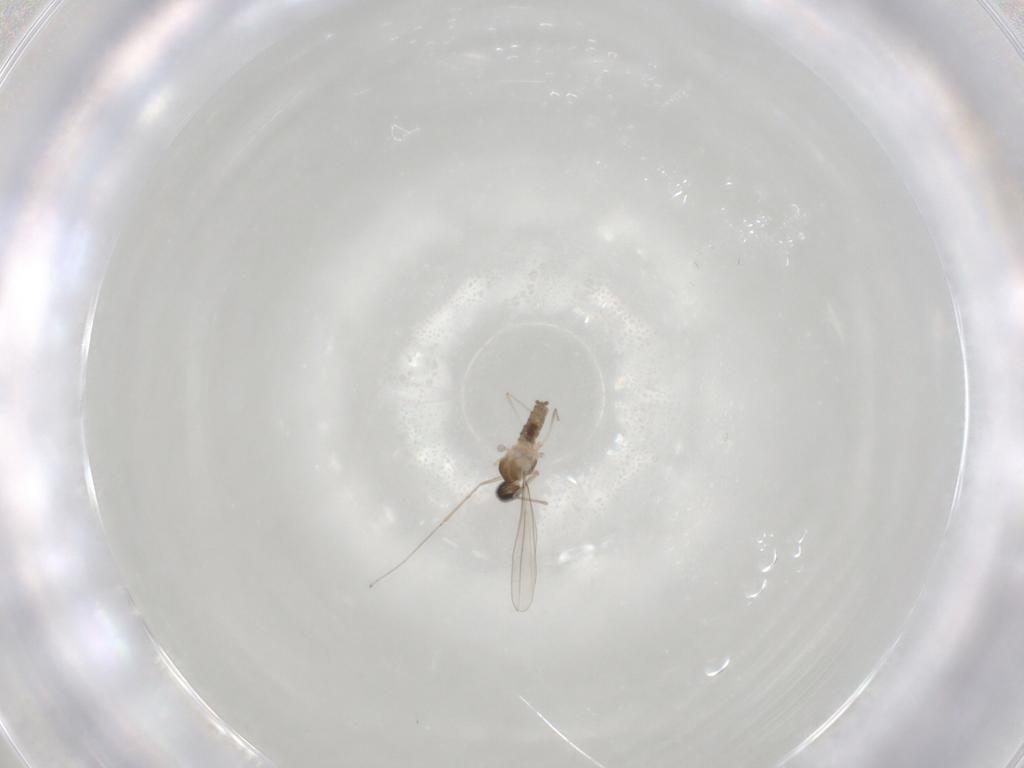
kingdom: Animalia
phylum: Arthropoda
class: Insecta
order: Diptera
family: Cecidomyiidae
